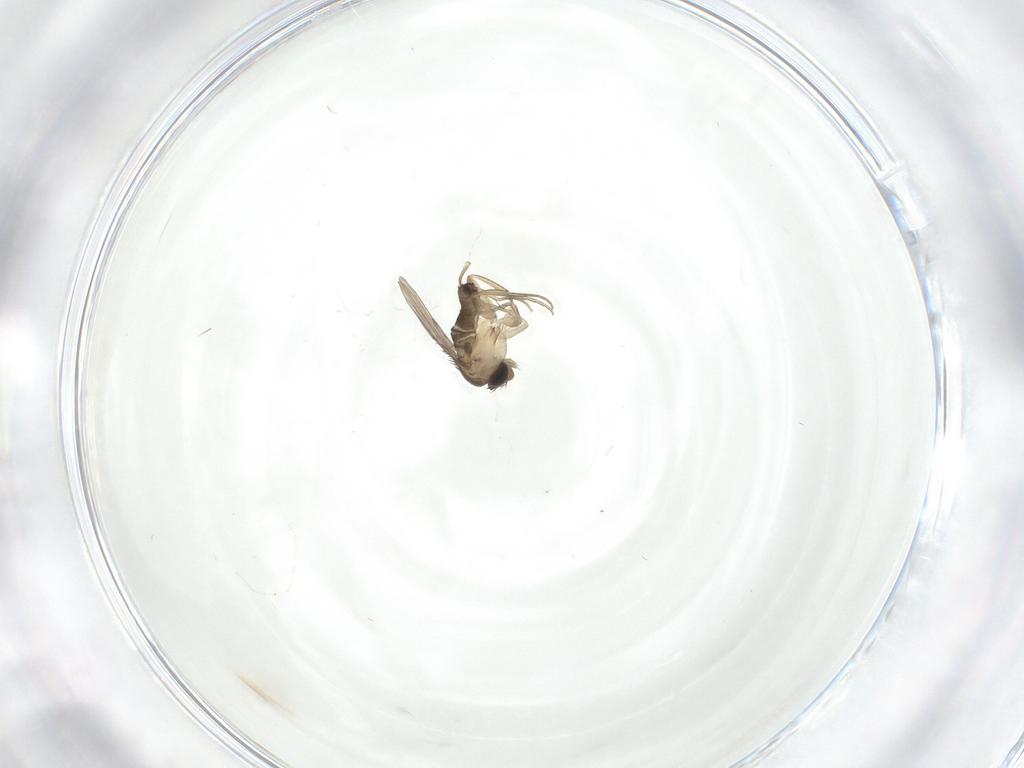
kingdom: Animalia
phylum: Arthropoda
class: Insecta
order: Diptera
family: Phoridae
